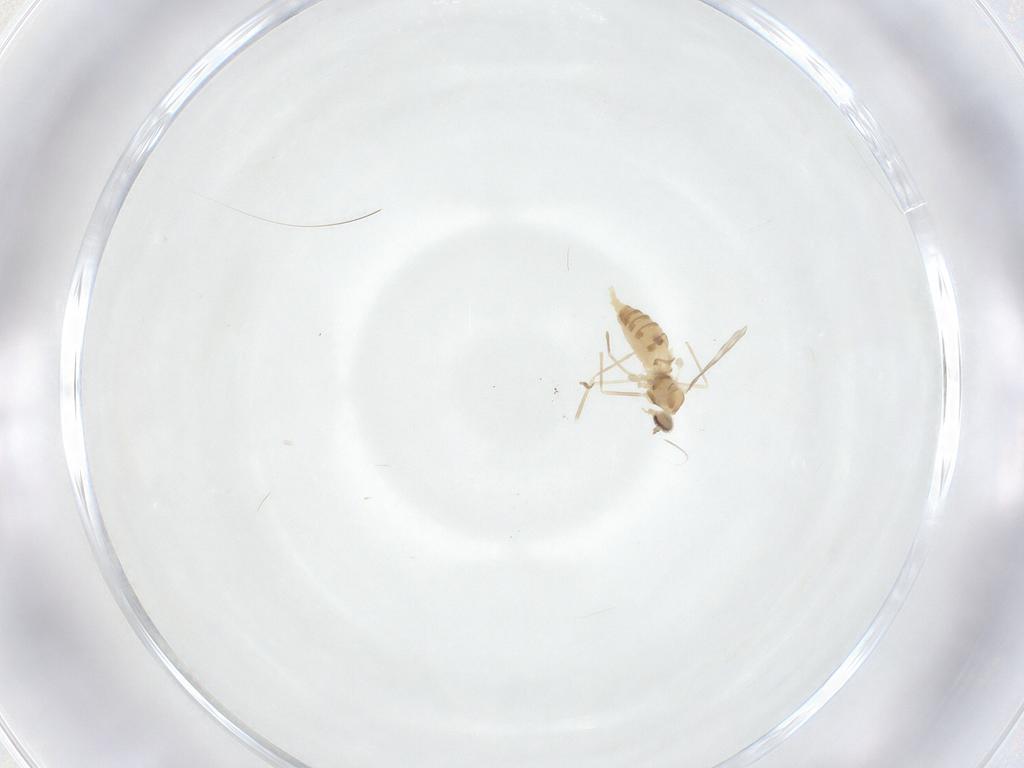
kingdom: Animalia
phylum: Arthropoda
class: Insecta
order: Diptera
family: Cecidomyiidae
